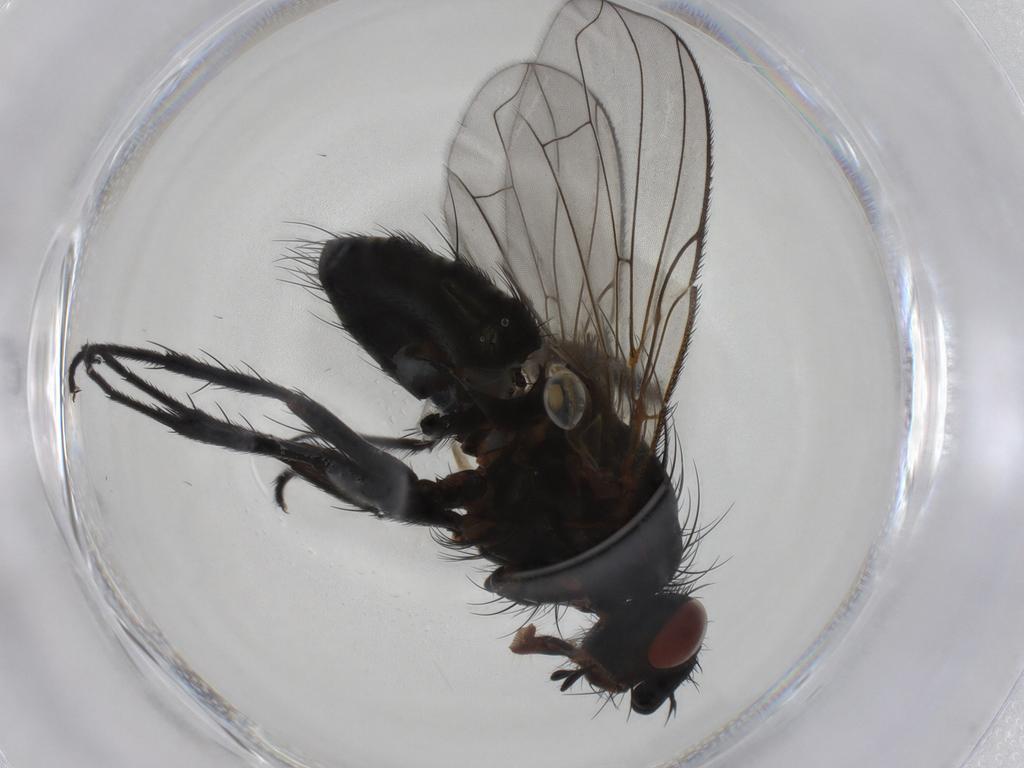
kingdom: Animalia
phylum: Arthropoda
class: Insecta
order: Diptera
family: Tachinidae
